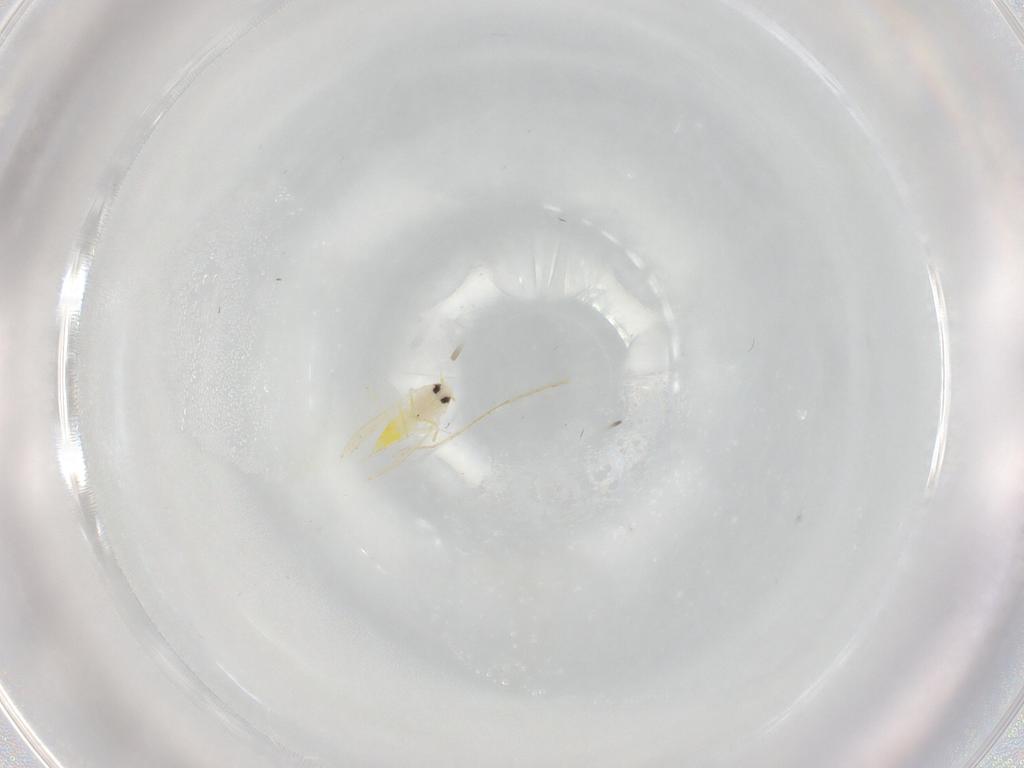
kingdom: Animalia
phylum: Arthropoda
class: Insecta
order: Hemiptera
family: Aleyrodidae
